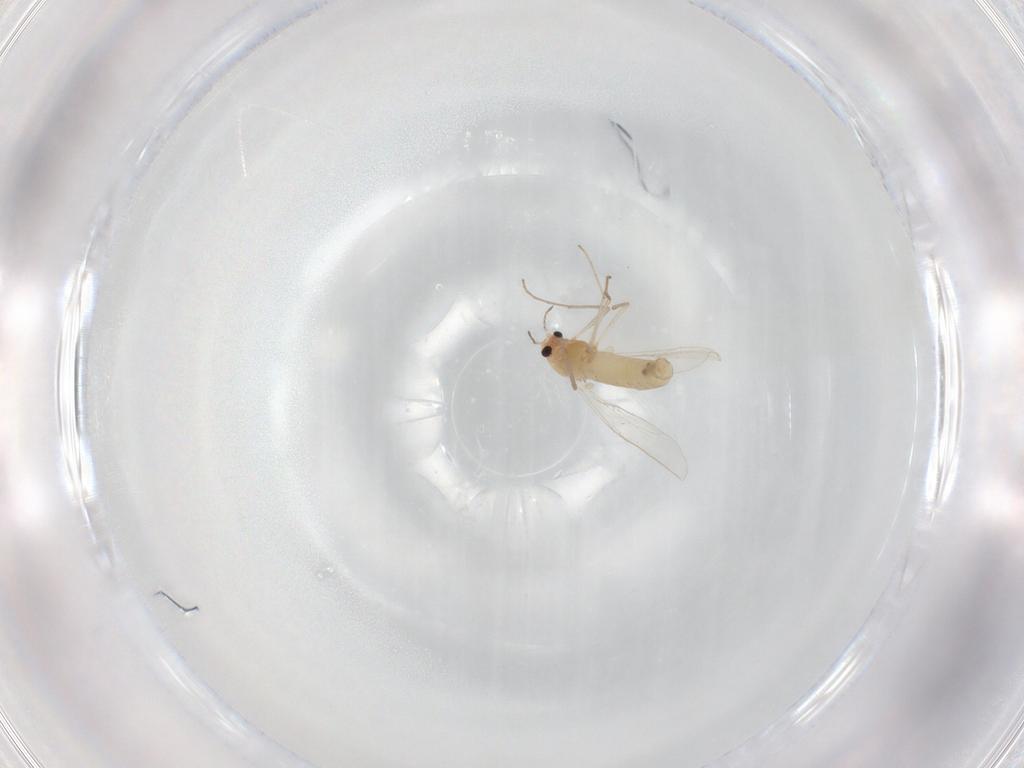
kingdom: Animalia
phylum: Arthropoda
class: Insecta
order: Diptera
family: Chironomidae
